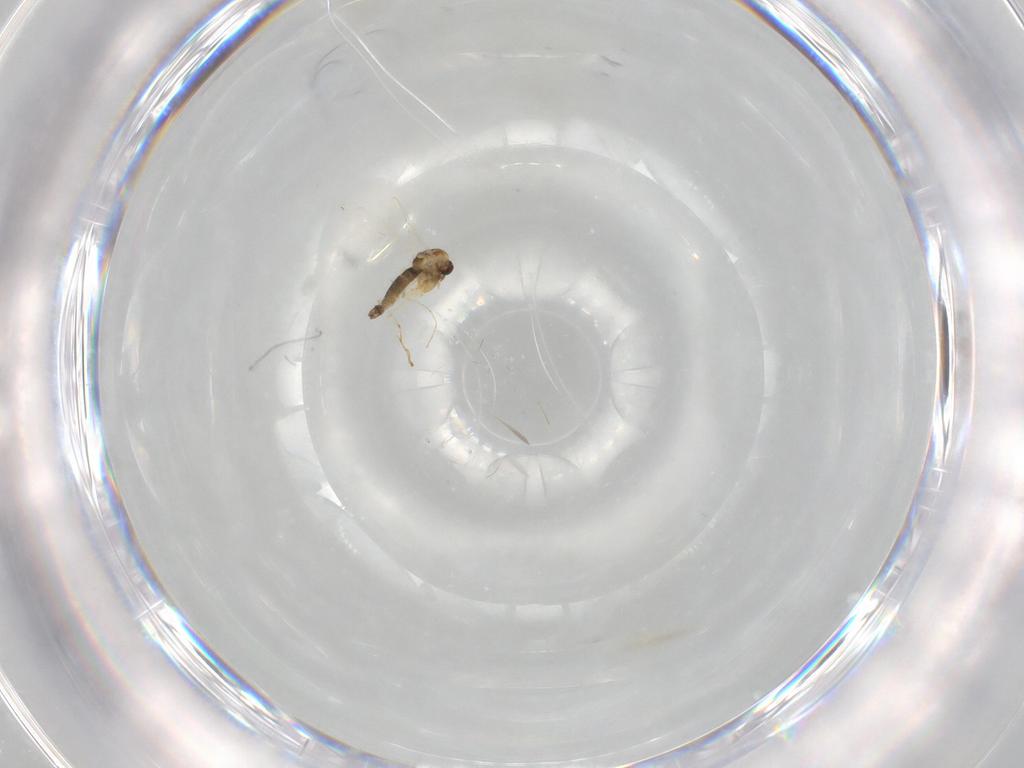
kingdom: Animalia
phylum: Arthropoda
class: Insecta
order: Diptera
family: Chironomidae
